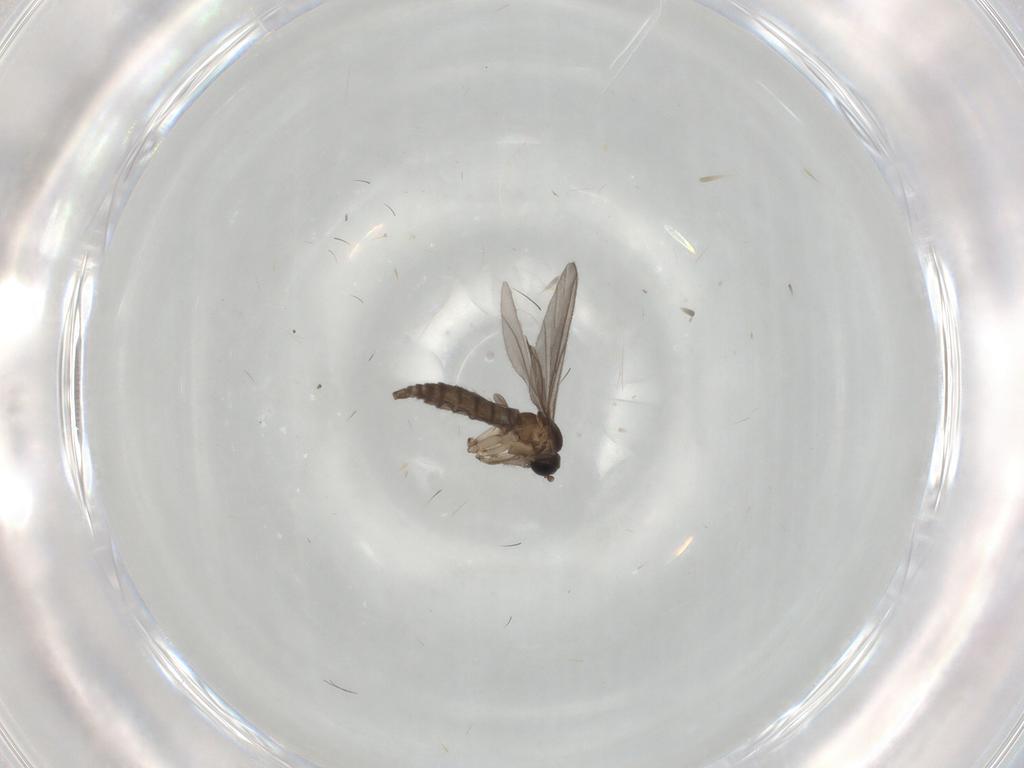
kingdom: Animalia
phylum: Arthropoda
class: Insecta
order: Diptera
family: Sciaridae
